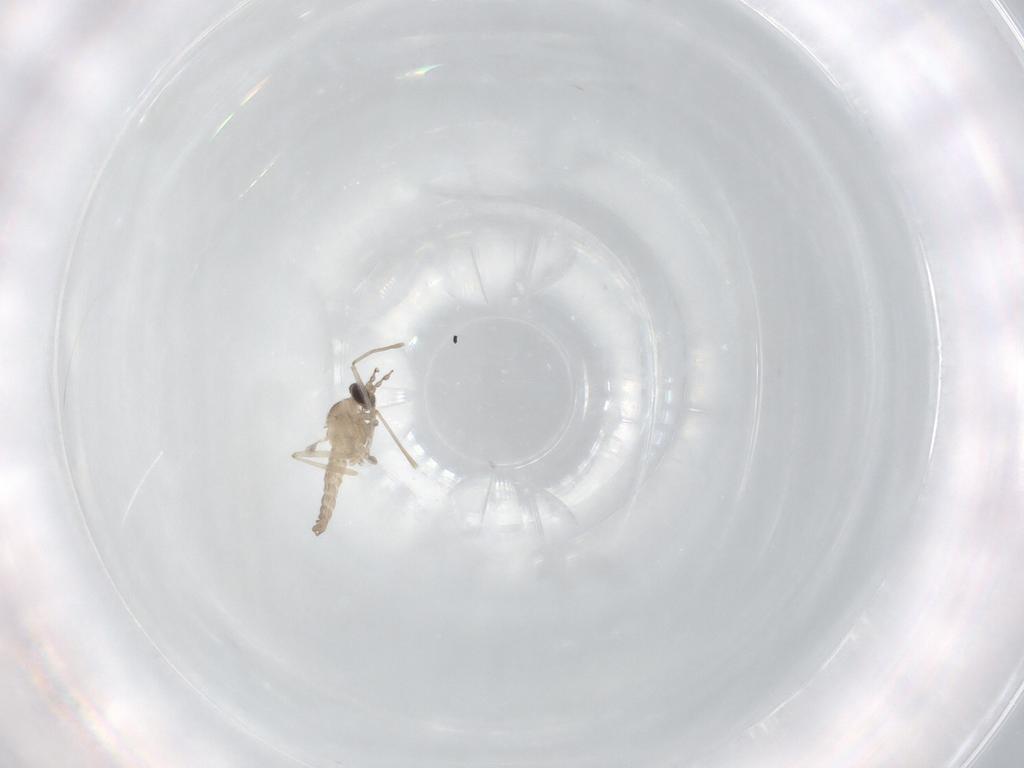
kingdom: Animalia
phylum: Arthropoda
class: Insecta
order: Diptera
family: Cecidomyiidae
